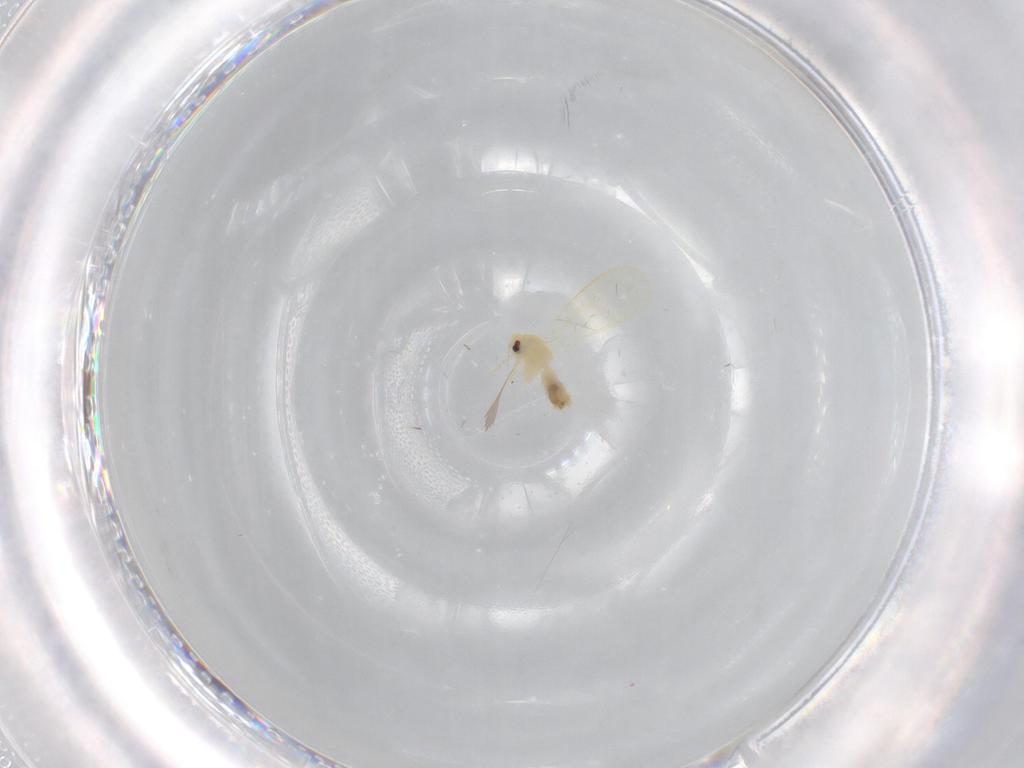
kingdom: Animalia
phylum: Arthropoda
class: Insecta
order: Hemiptera
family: Aleyrodidae
